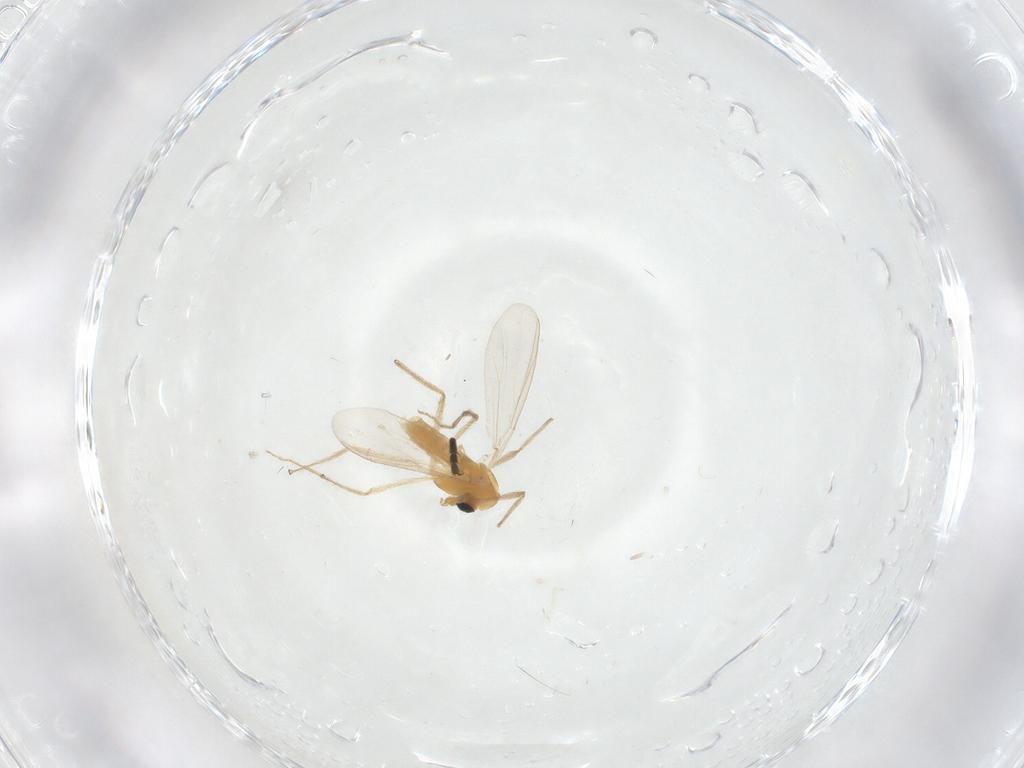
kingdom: Animalia
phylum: Arthropoda
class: Insecta
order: Diptera
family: Chironomidae
